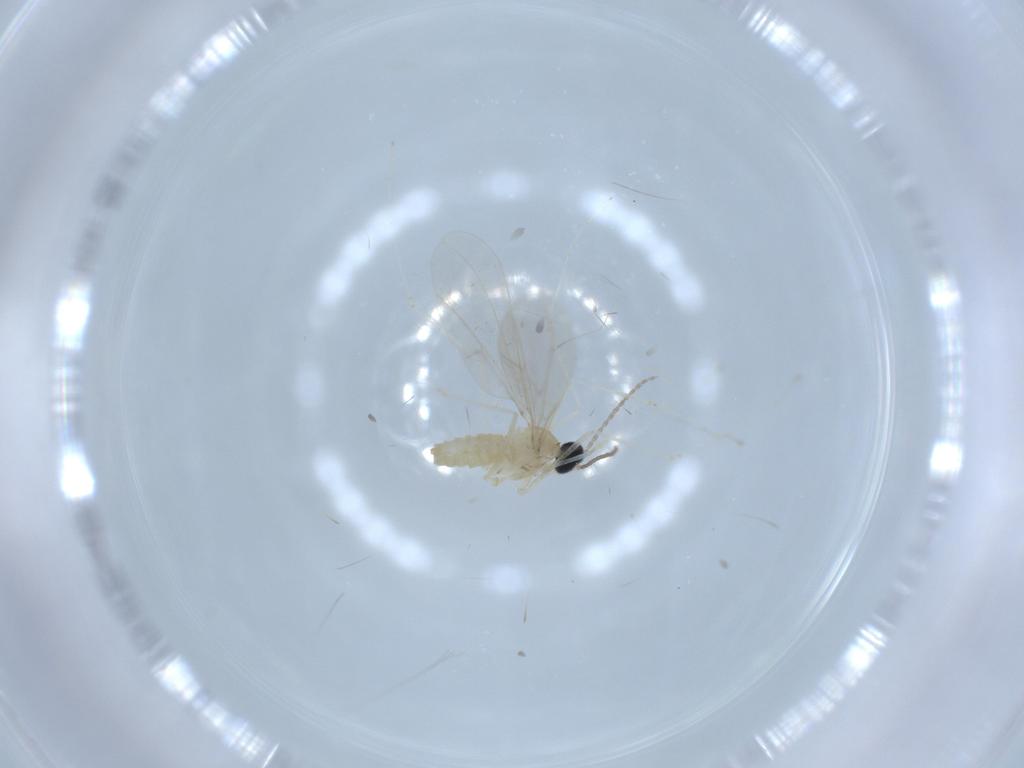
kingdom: Animalia
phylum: Arthropoda
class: Insecta
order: Diptera
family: Cecidomyiidae
